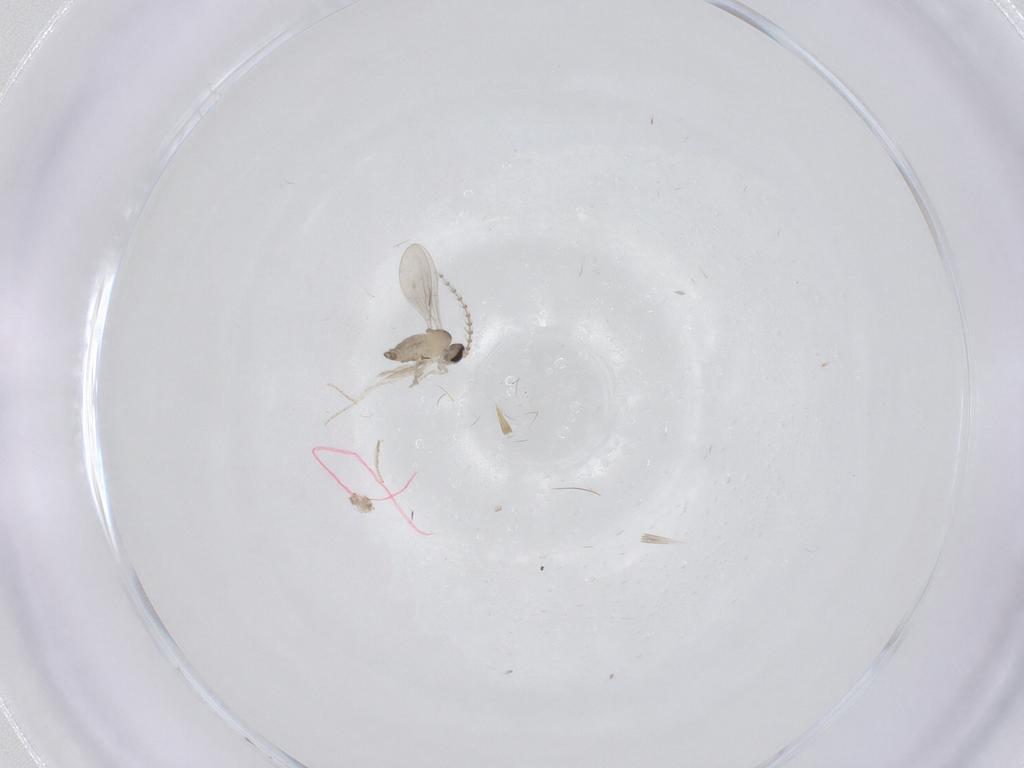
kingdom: Animalia
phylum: Arthropoda
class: Insecta
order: Diptera
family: Cecidomyiidae
